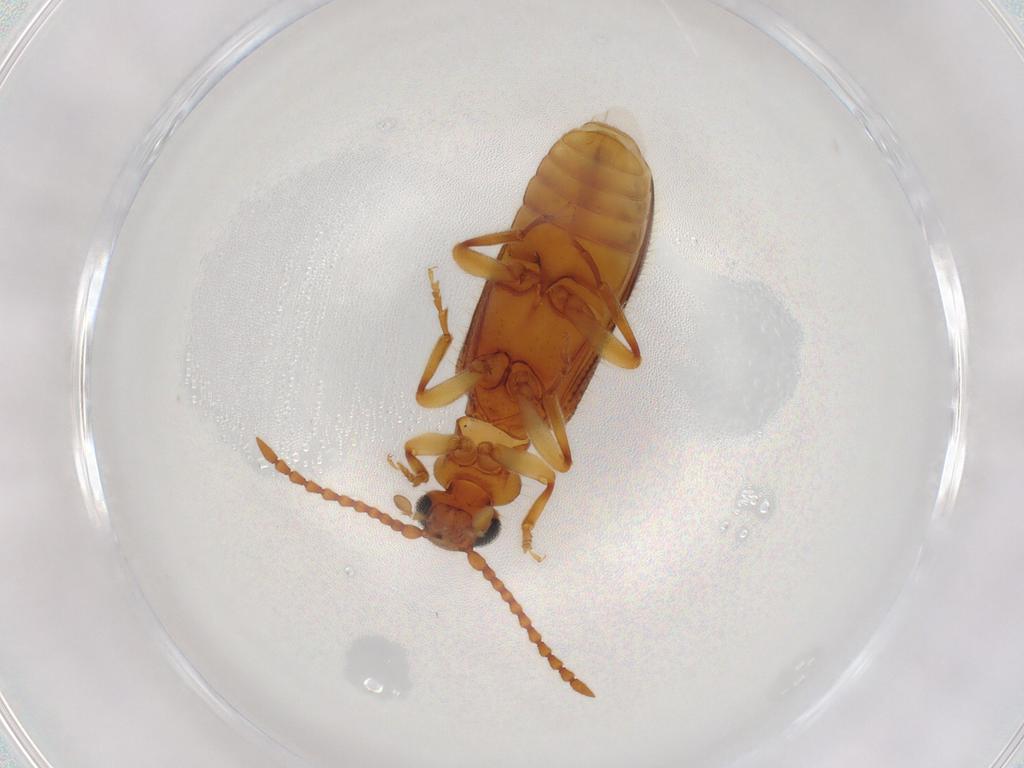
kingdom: Animalia
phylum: Arthropoda
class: Insecta
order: Coleoptera
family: Anthicidae
